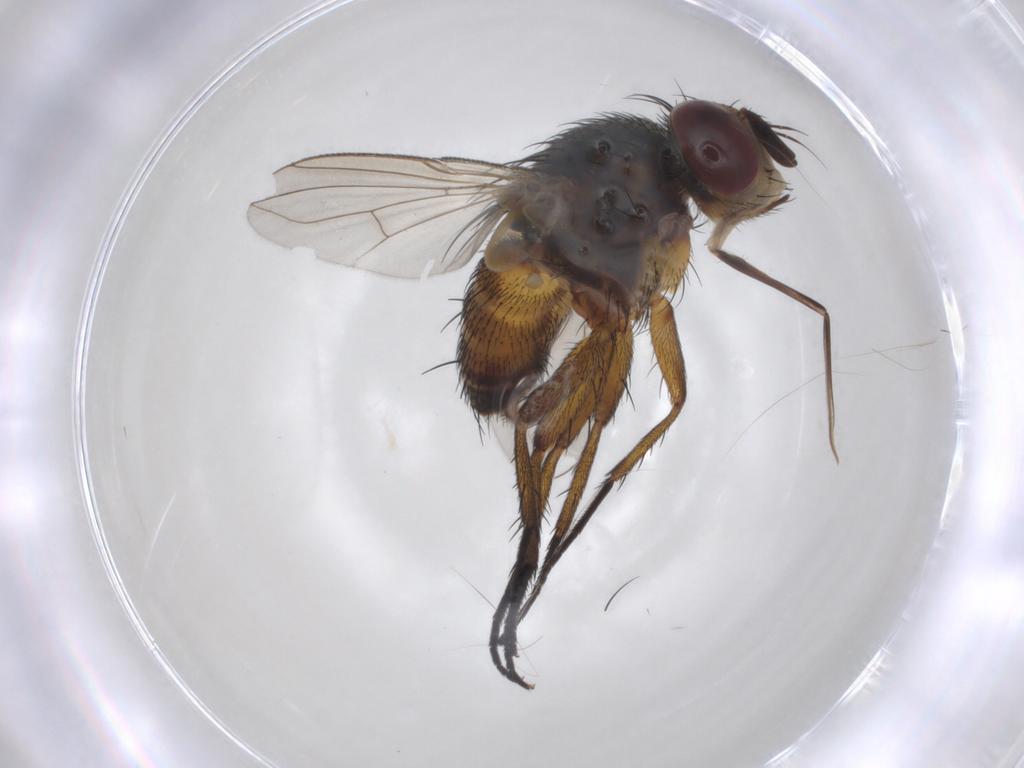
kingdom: Animalia
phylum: Arthropoda
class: Insecta
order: Diptera
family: Tachinidae
